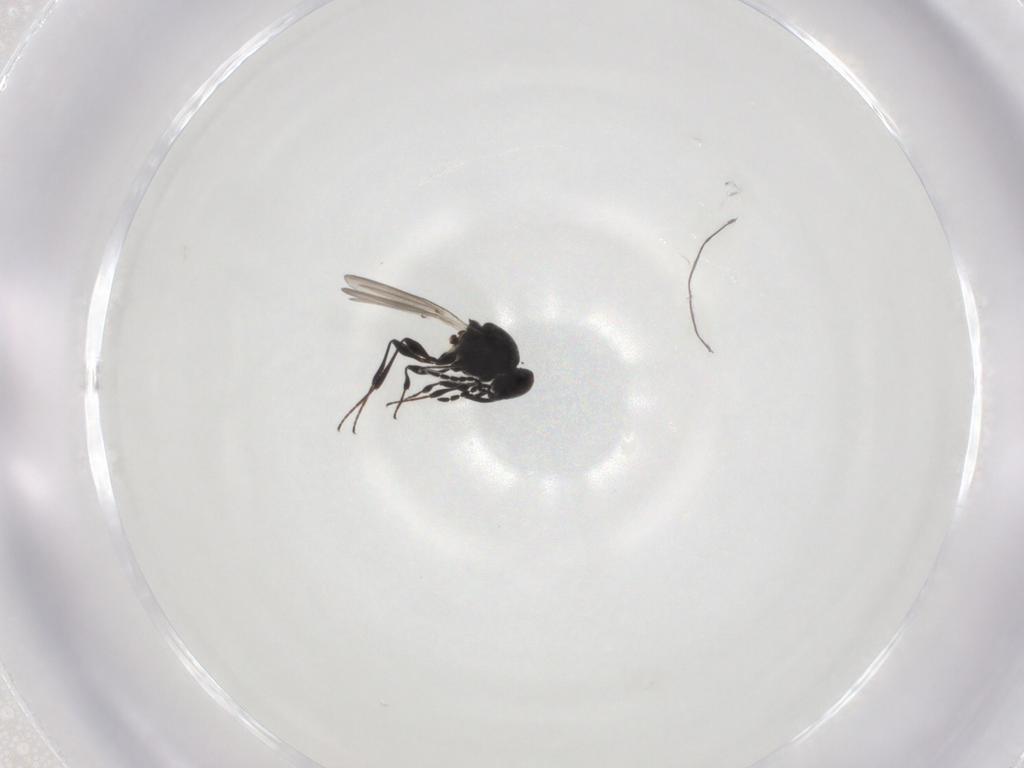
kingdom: Animalia
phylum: Arthropoda
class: Insecta
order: Hymenoptera
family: Platygastridae
